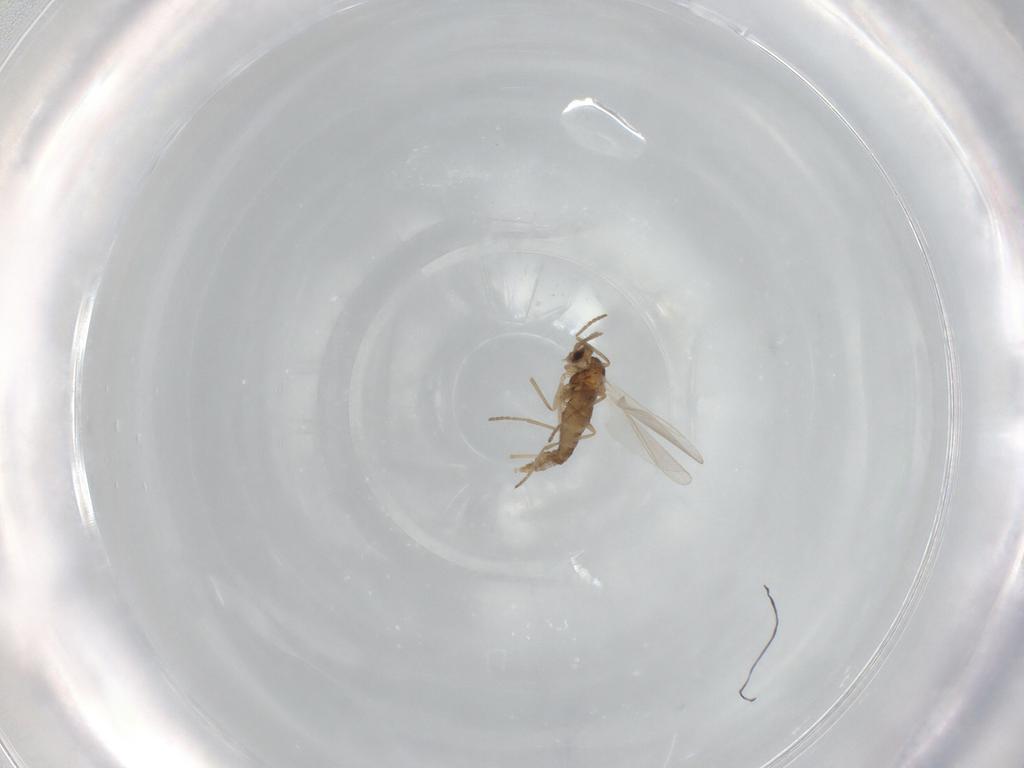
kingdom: Animalia
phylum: Arthropoda
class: Insecta
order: Diptera
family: Cecidomyiidae
